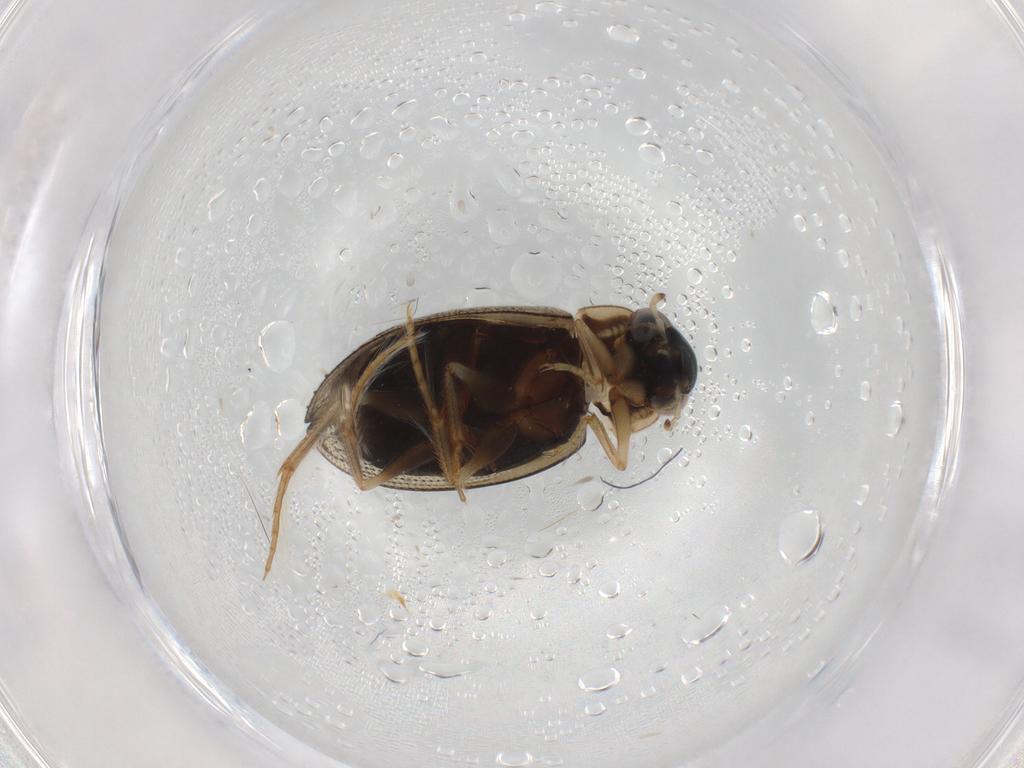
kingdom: Animalia
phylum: Arthropoda
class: Insecta
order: Coleoptera
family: Hydrophilidae
